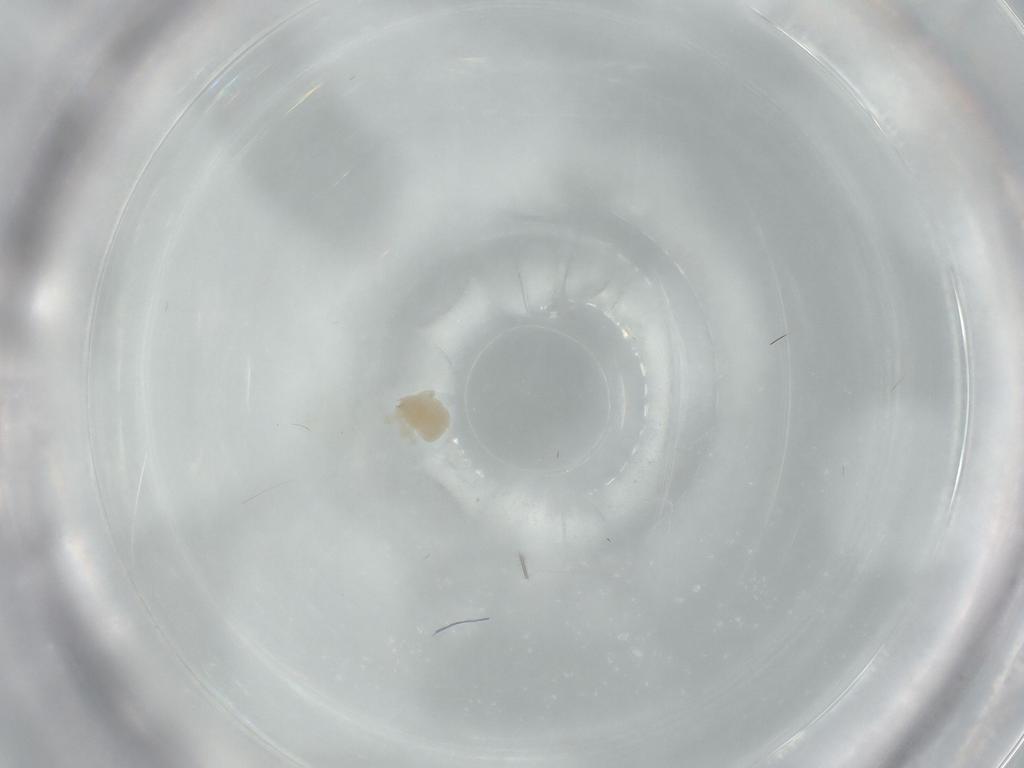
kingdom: Animalia
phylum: Arthropoda
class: Arachnida
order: Trombidiformes
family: Anystidae
